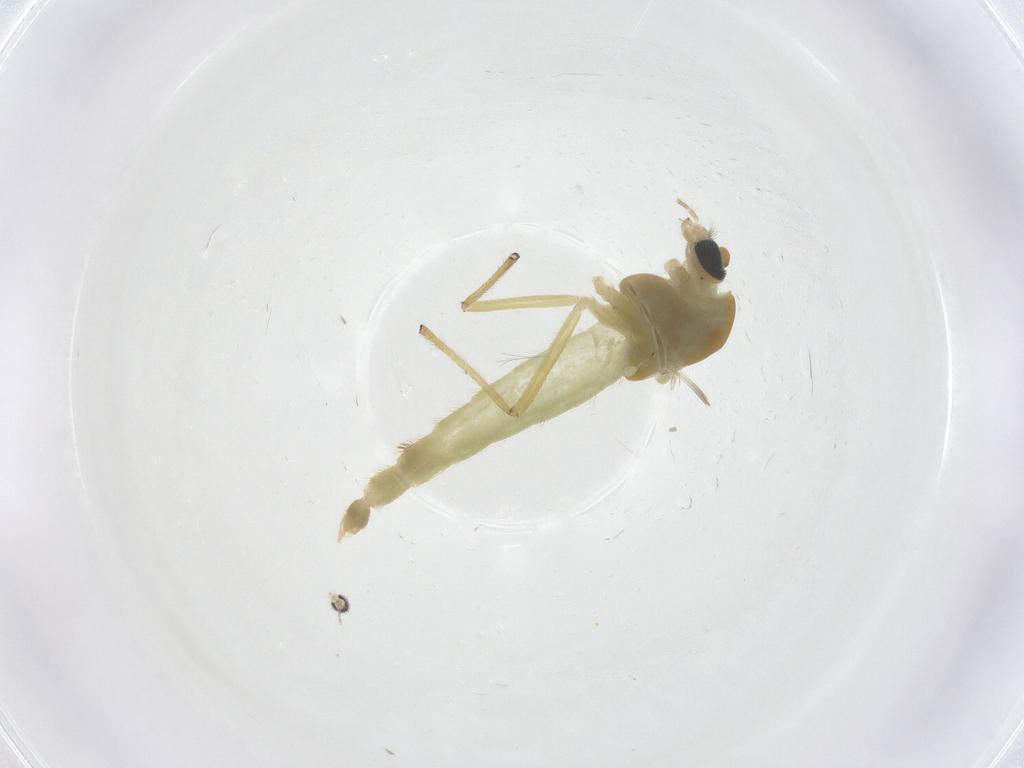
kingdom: Animalia
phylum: Arthropoda
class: Insecta
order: Diptera
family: Chironomidae
